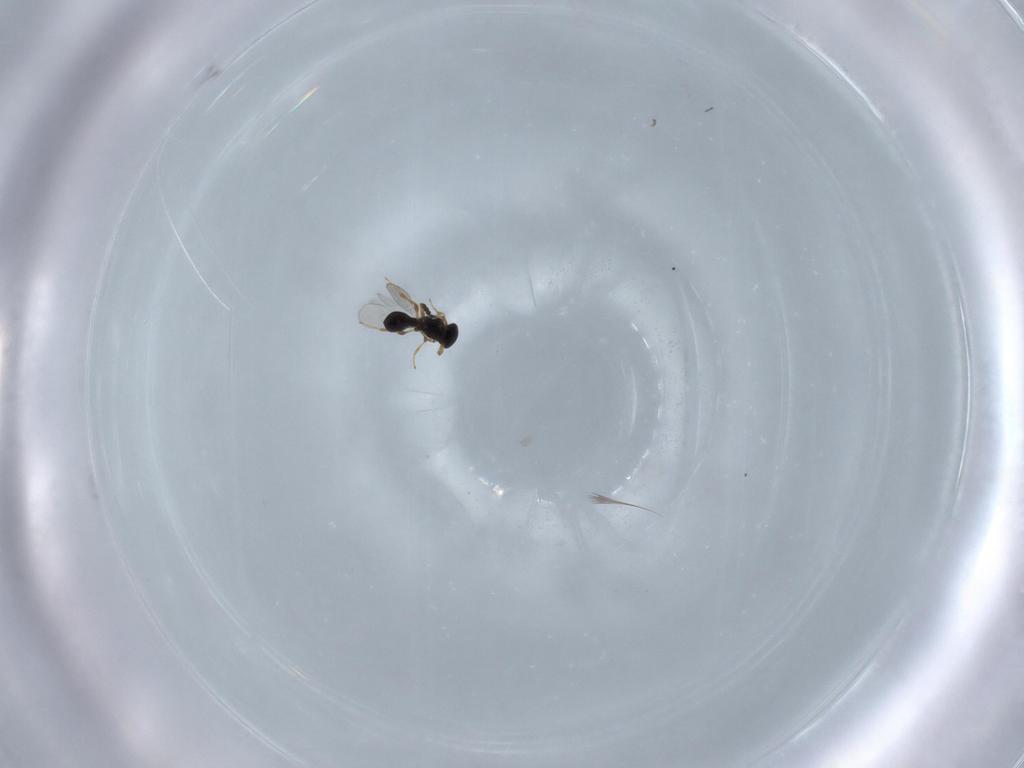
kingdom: Animalia
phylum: Arthropoda
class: Insecta
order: Hymenoptera
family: Platygastridae
